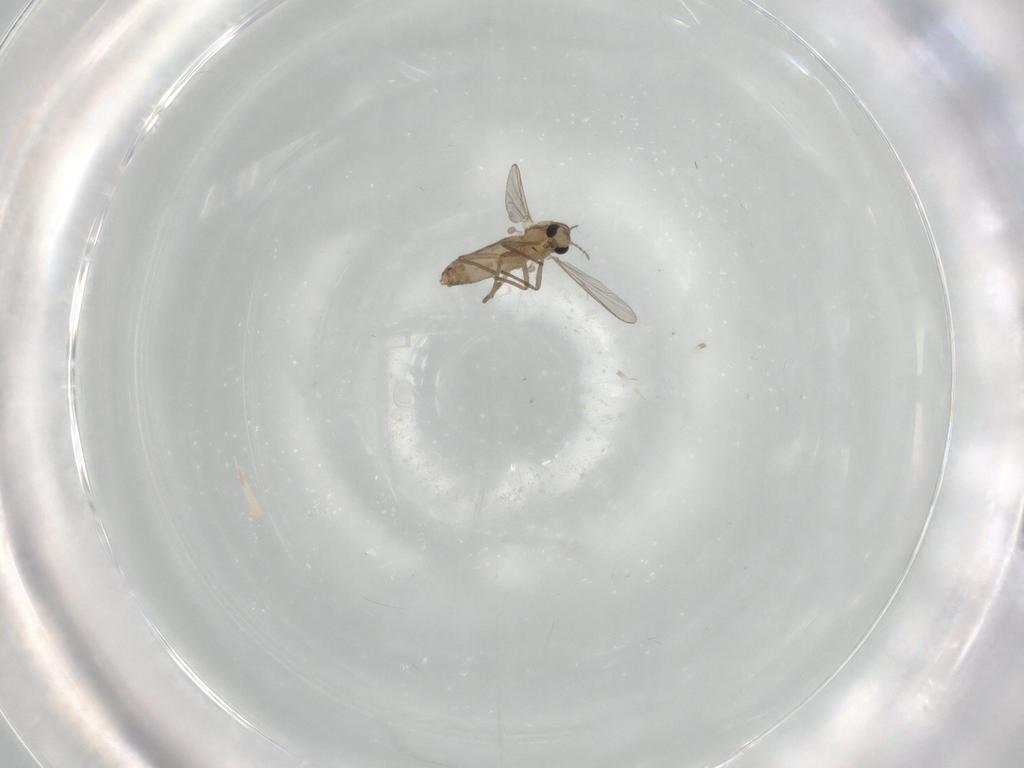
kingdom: Animalia
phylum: Arthropoda
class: Insecta
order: Diptera
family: Chironomidae
